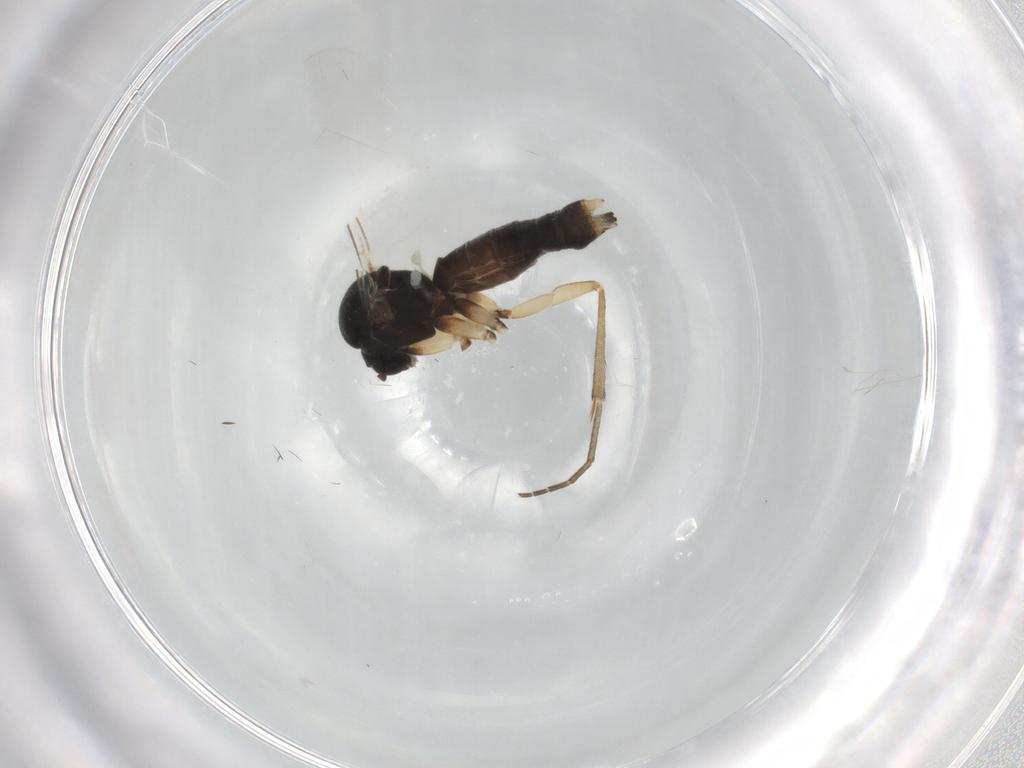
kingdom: Animalia
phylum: Arthropoda
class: Insecta
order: Diptera
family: Mycetophilidae
